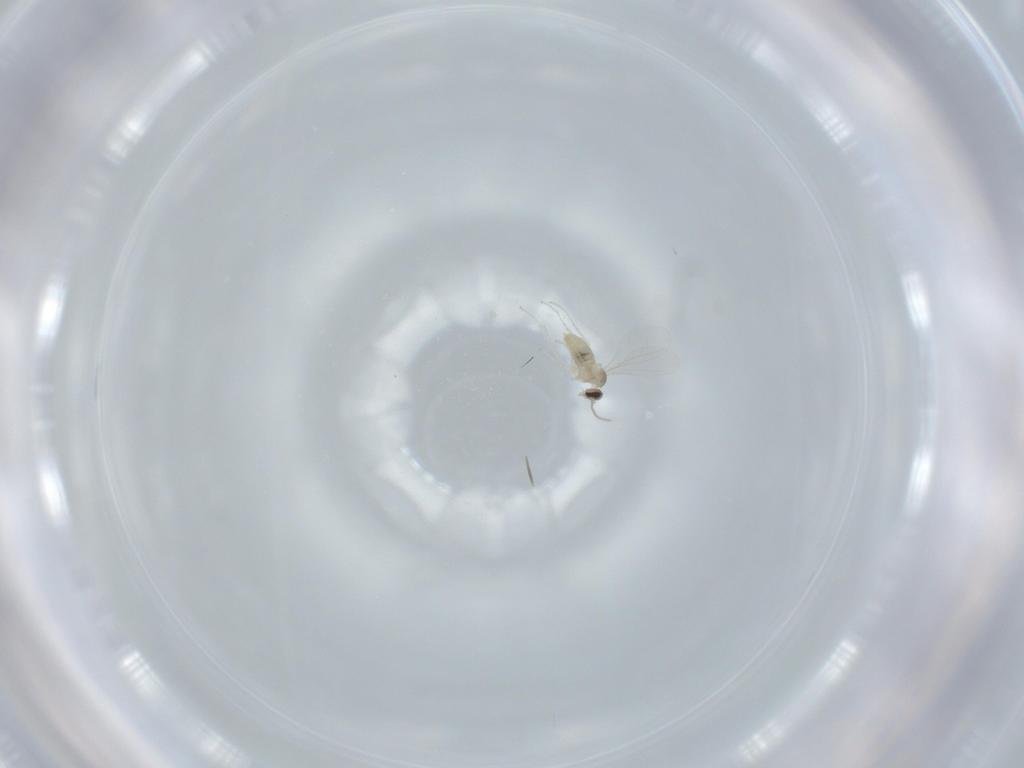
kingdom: Animalia
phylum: Arthropoda
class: Insecta
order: Diptera
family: Cecidomyiidae
